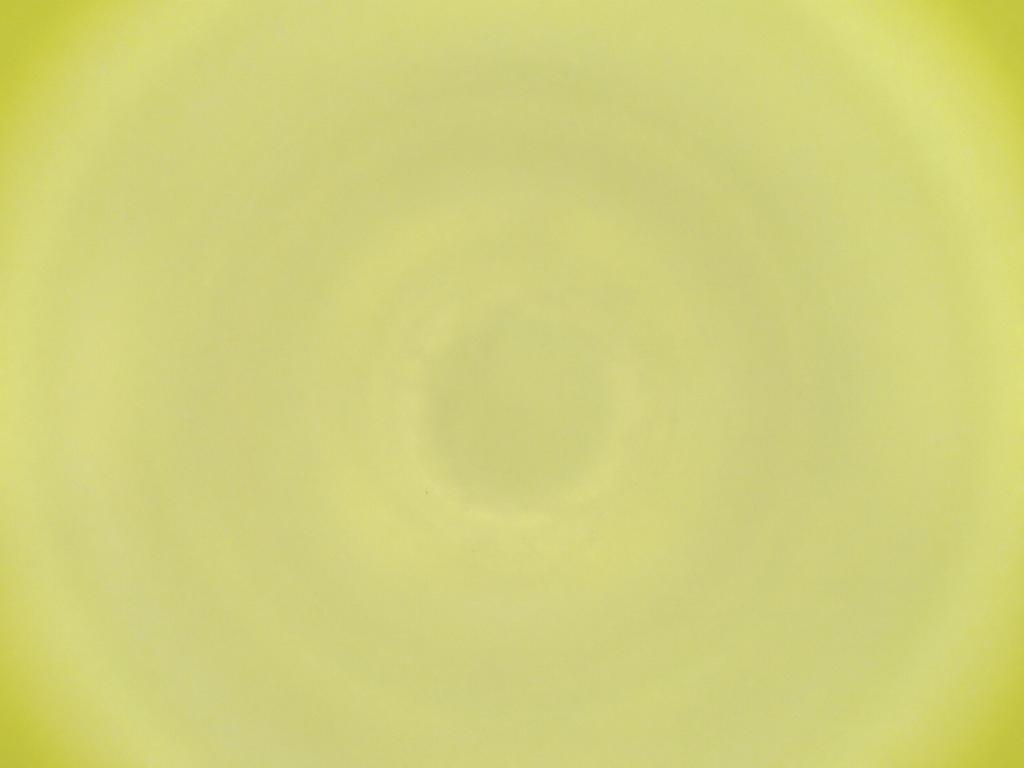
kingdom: Animalia
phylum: Arthropoda
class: Insecta
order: Diptera
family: Cecidomyiidae
